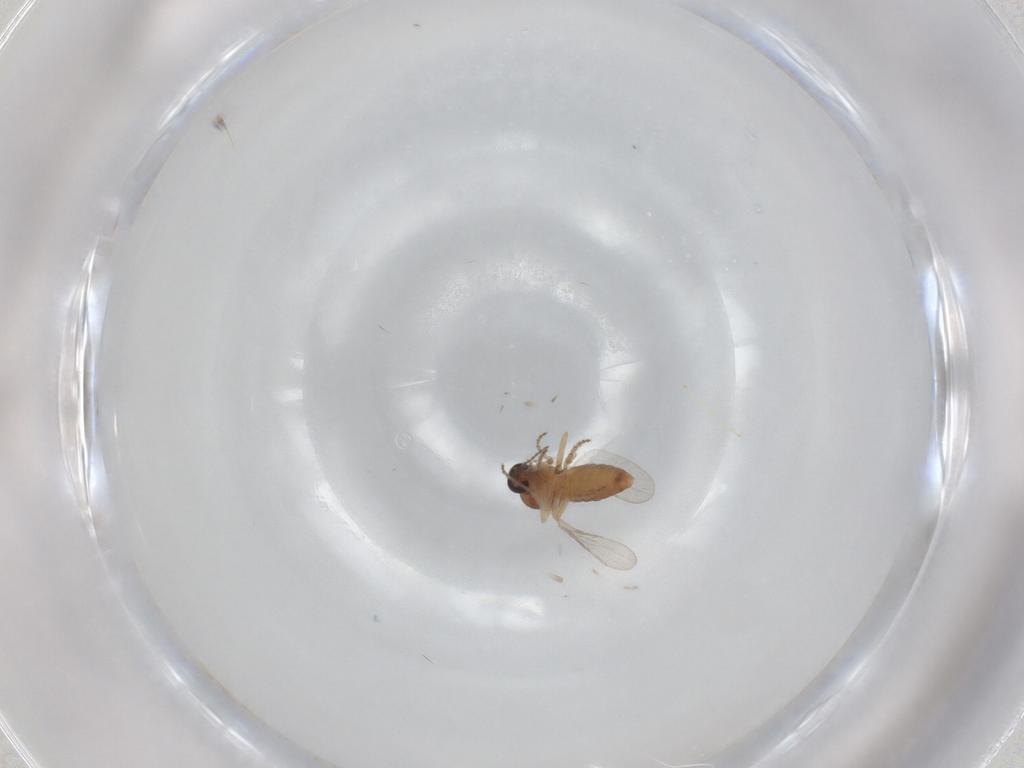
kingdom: Animalia
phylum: Arthropoda
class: Insecta
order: Diptera
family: Ceratopogonidae
